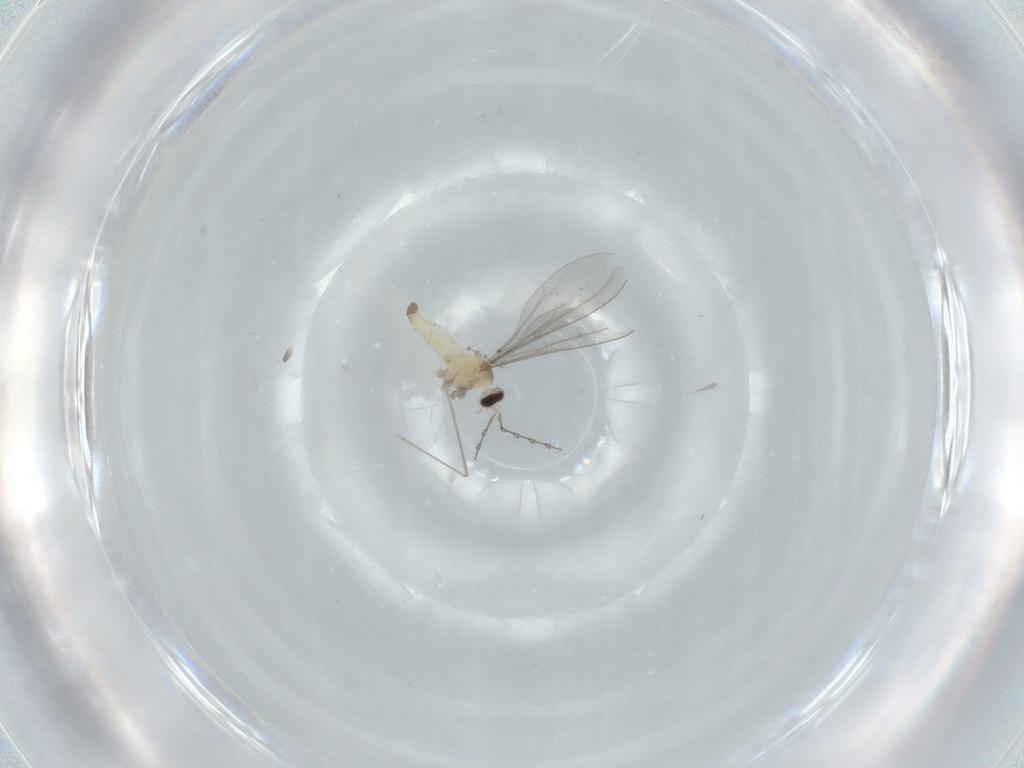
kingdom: Animalia
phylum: Arthropoda
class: Insecta
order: Diptera
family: Cecidomyiidae
